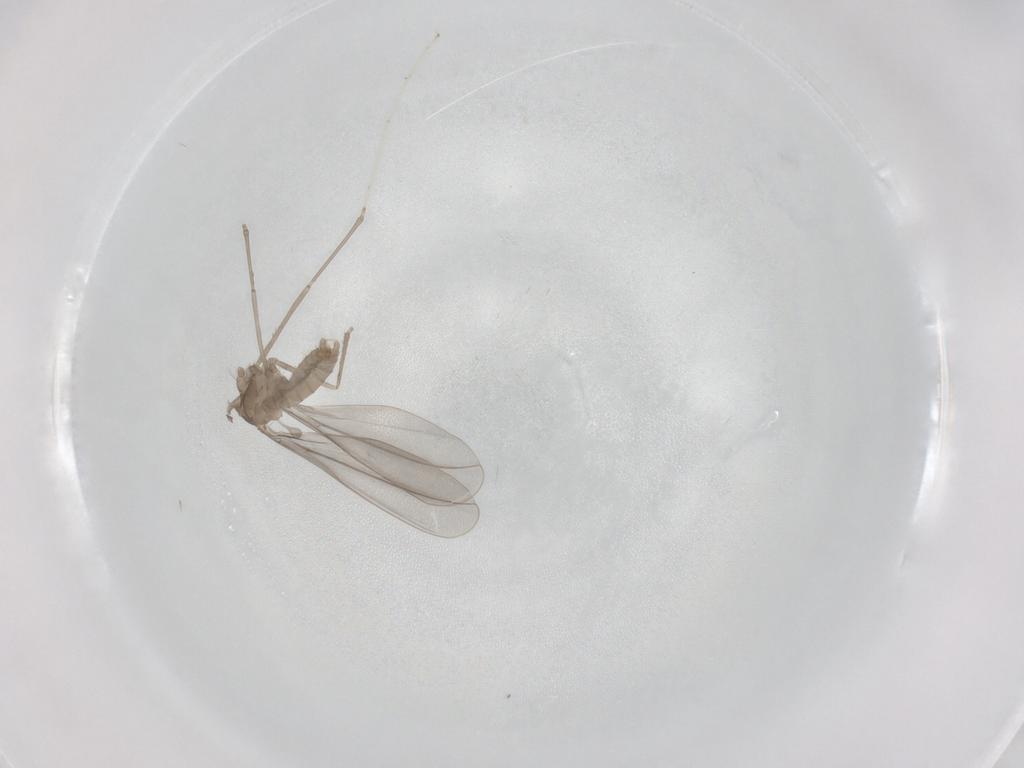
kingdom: Animalia
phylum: Arthropoda
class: Insecta
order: Diptera
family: Cecidomyiidae
